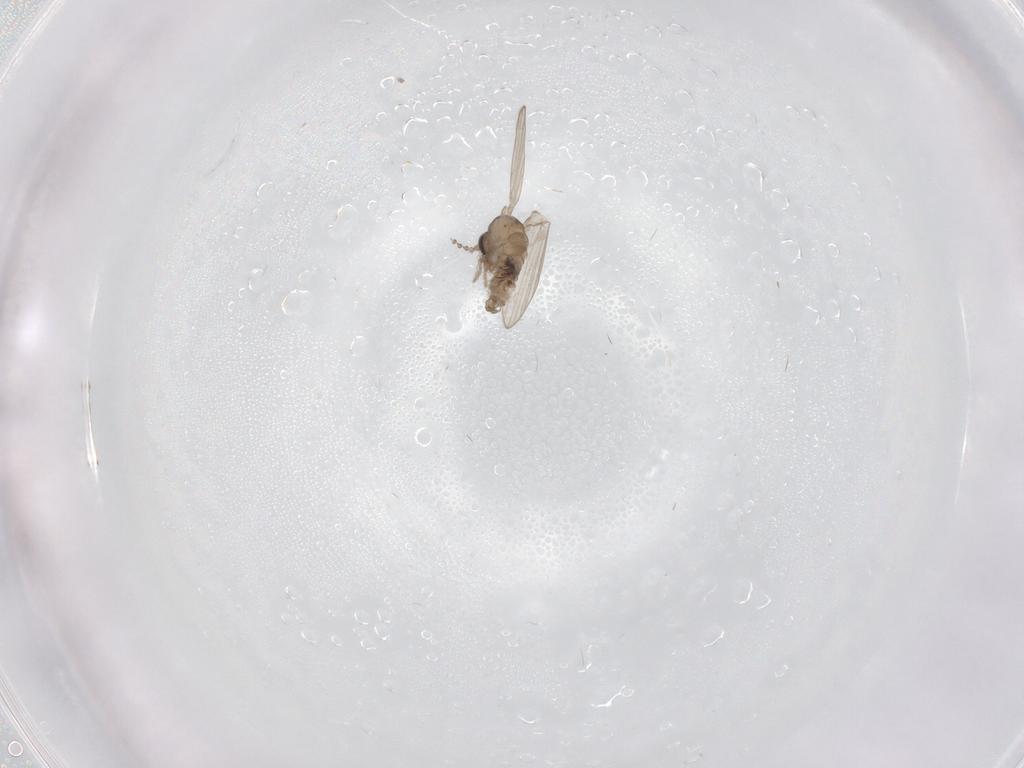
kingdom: Animalia
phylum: Arthropoda
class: Insecta
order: Diptera
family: Psychodidae
